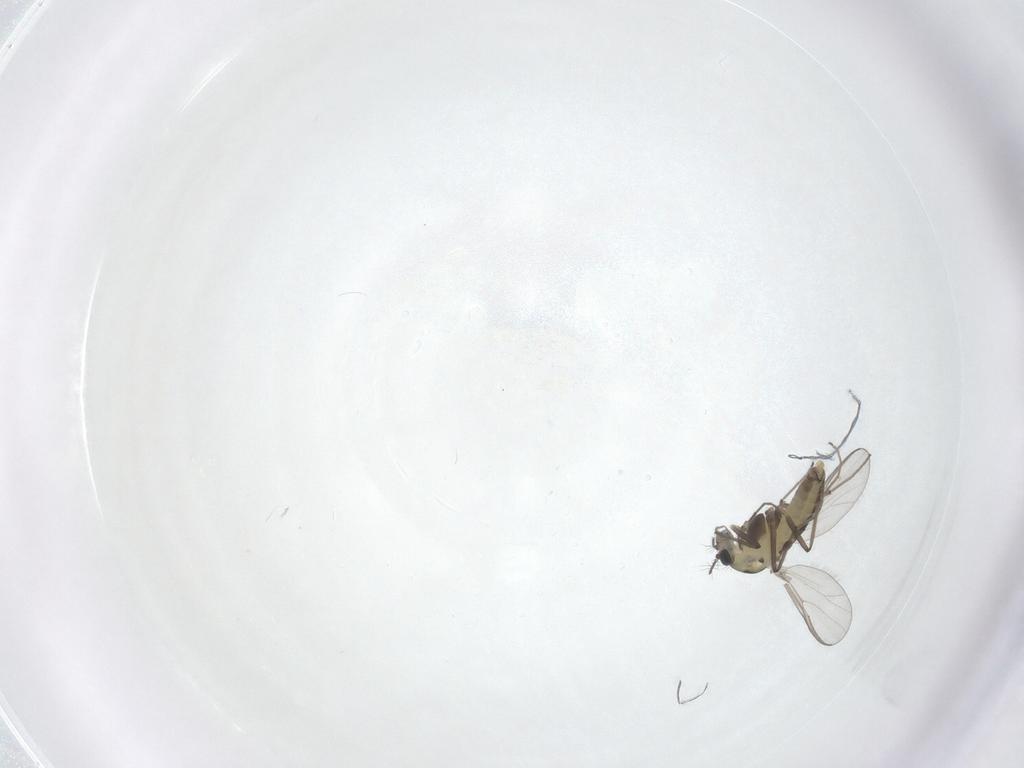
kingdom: Animalia
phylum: Arthropoda
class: Insecta
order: Diptera
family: Chironomidae
